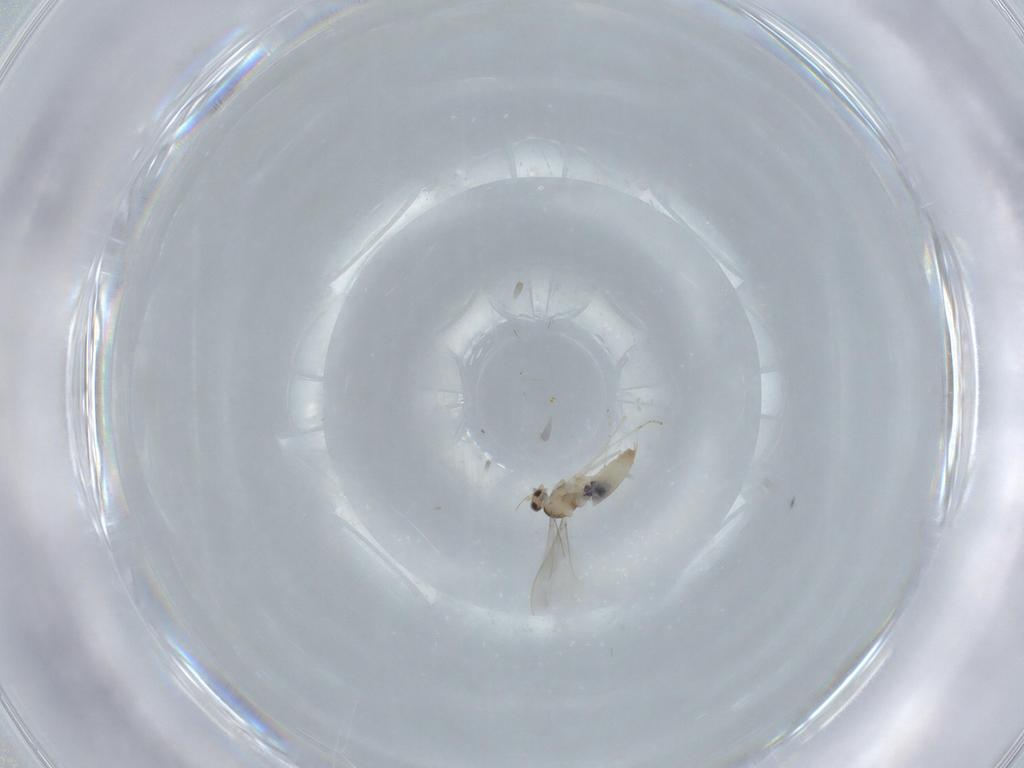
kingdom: Animalia
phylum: Arthropoda
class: Insecta
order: Diptera
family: Cecidomyiidae
